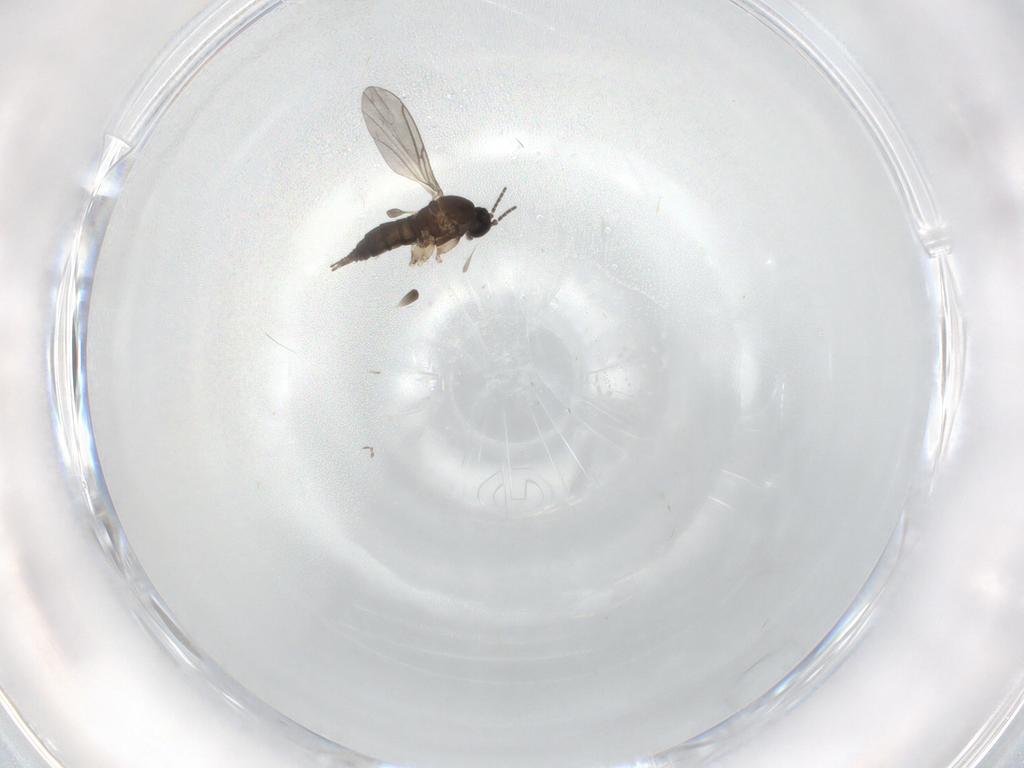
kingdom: Animalia
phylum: Arthropoda
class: Insecta
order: Diptera
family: Sciaridae
